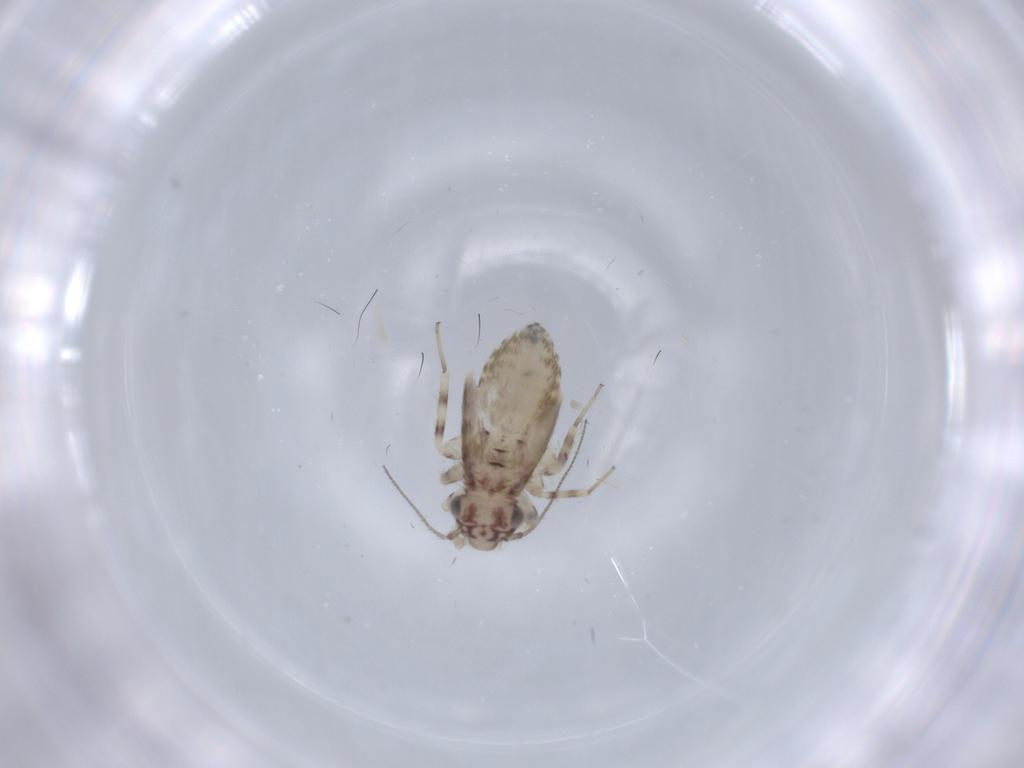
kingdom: Animalia
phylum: Arthropoda
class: Insecta
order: Psocodea
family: Lepidopsocidae
